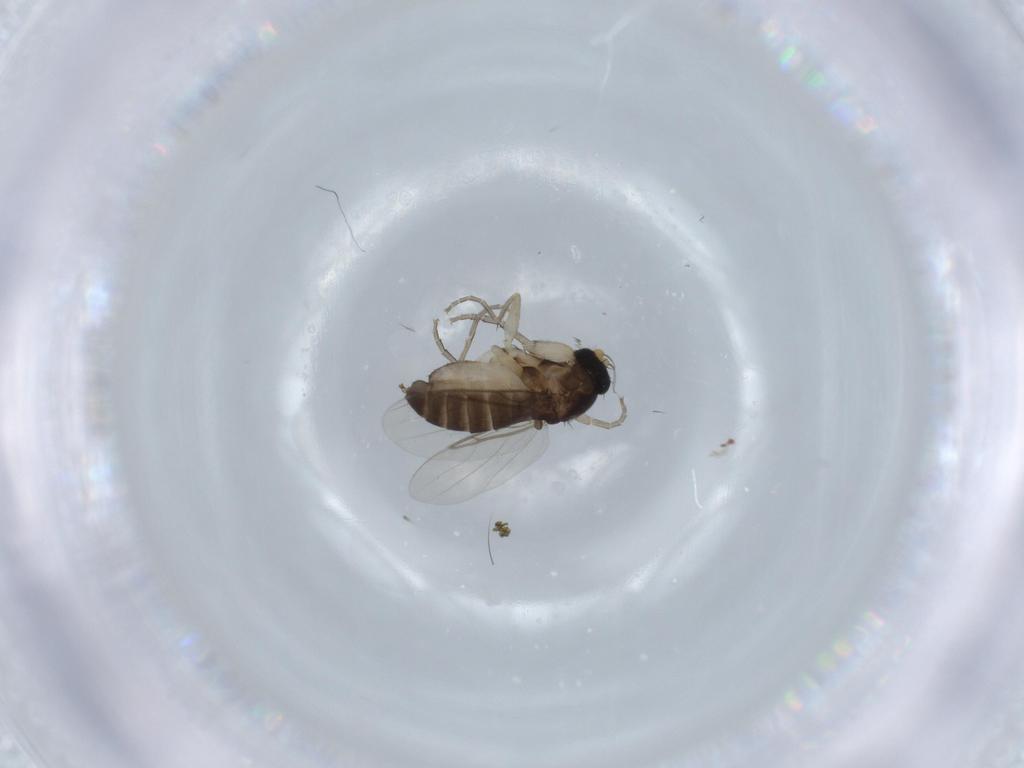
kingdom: Animalia
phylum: Arthropoda
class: Insecta
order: Diptera
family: Phoridae
